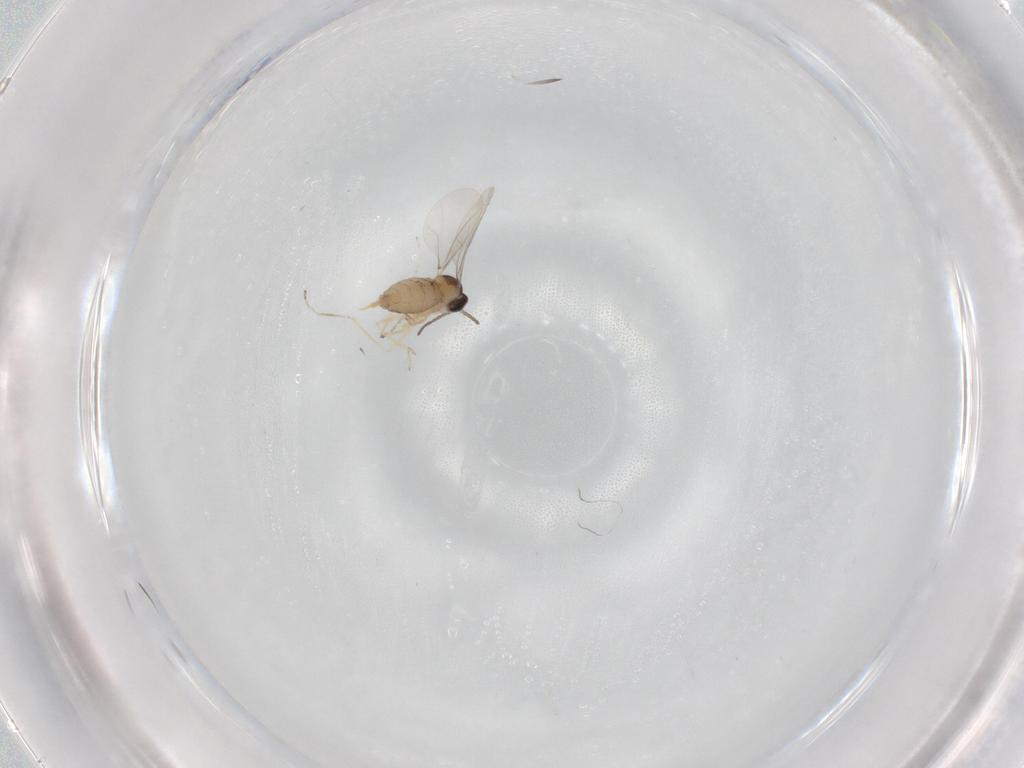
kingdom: Animalia
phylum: Arthropoda
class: Insecta
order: Diptera
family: Cecidomyiidae
